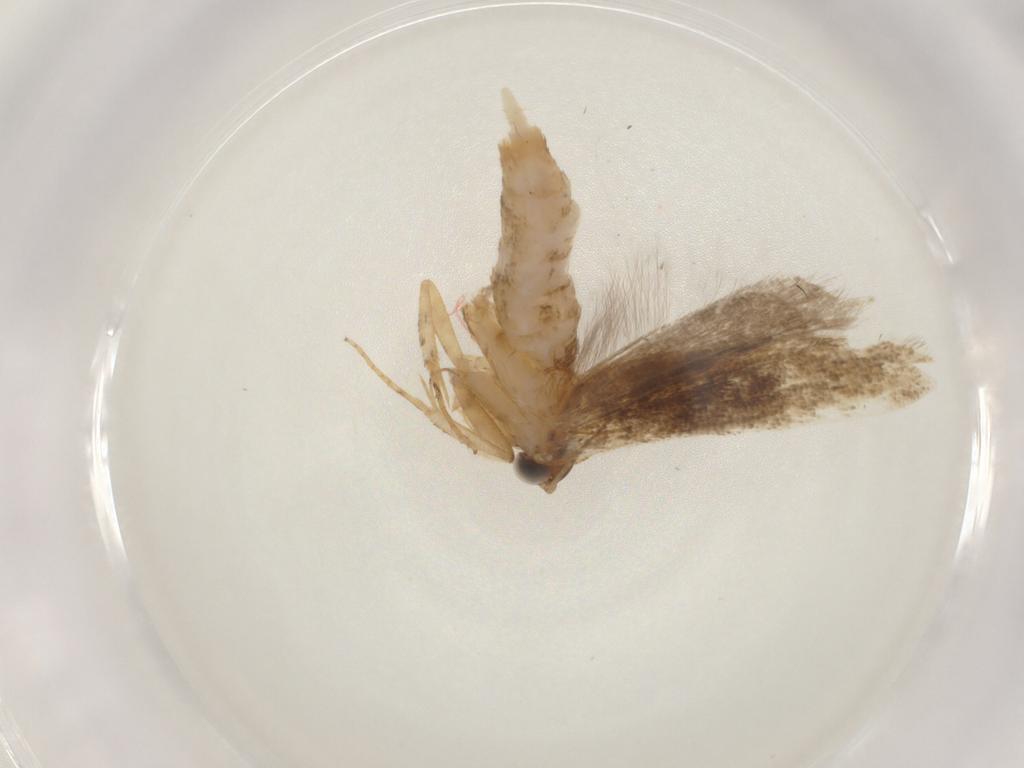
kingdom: Animalia
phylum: Arthropoda
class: Insecta
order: Lepidoptera
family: Gelechiidae
